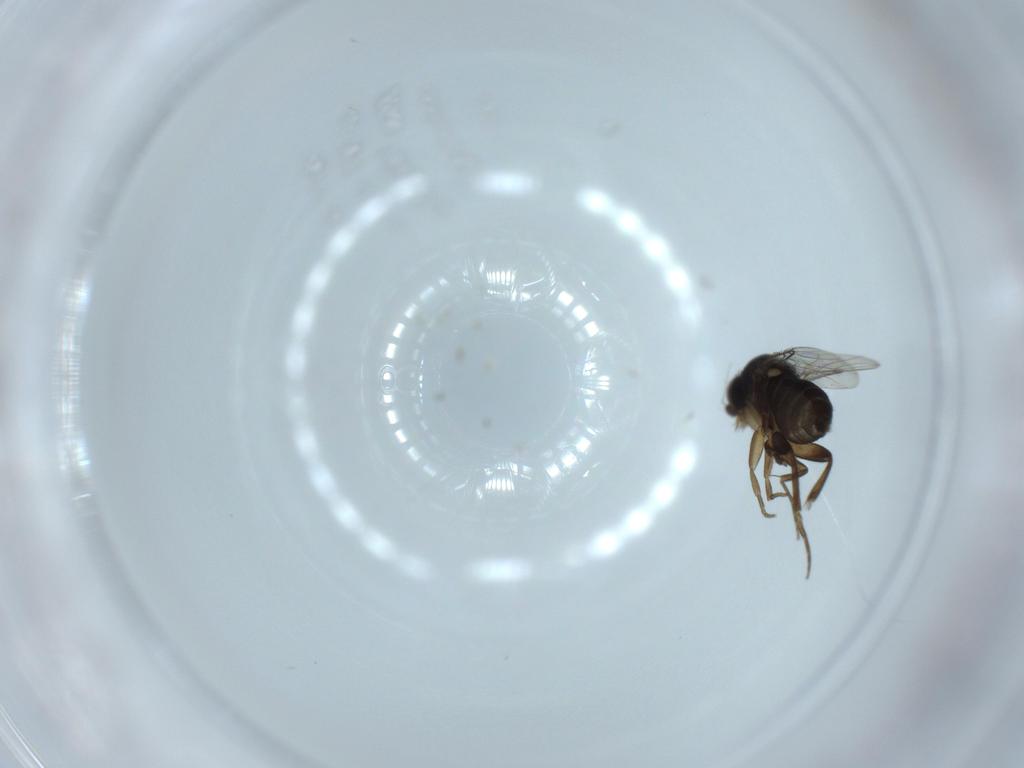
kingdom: Animalia
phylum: Arthropoda
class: Insecta
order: Diptera
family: Phoridae
